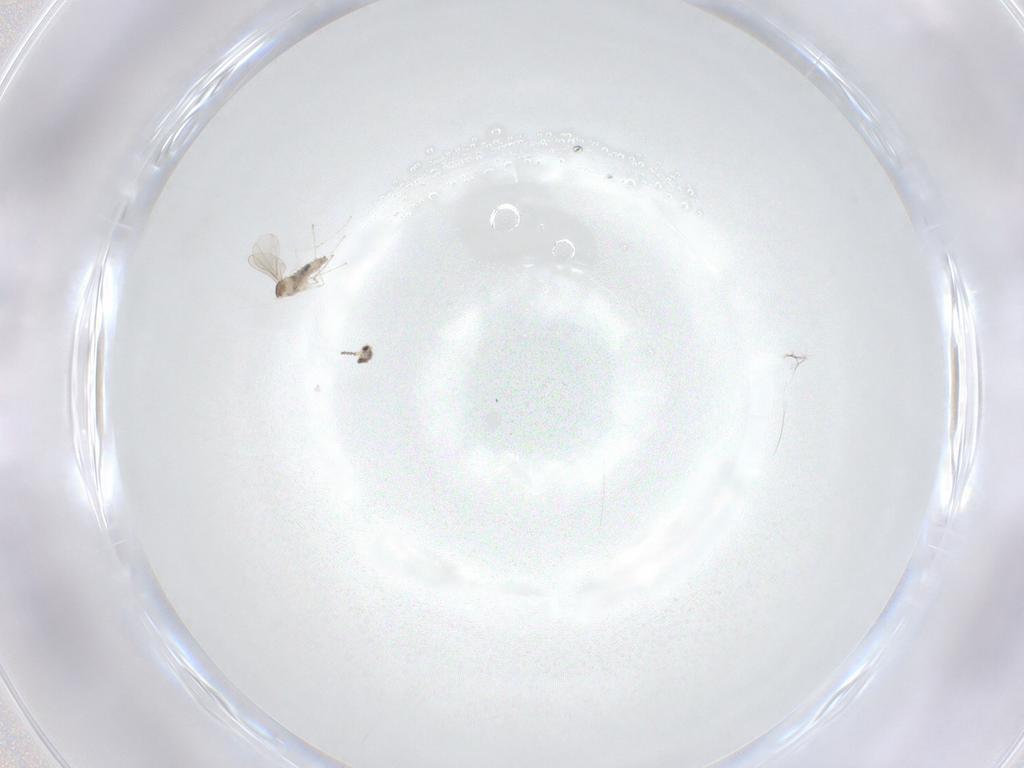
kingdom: Animalia
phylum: Arthropoda
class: Insecta
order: Diptera
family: Cecidomyiidae
